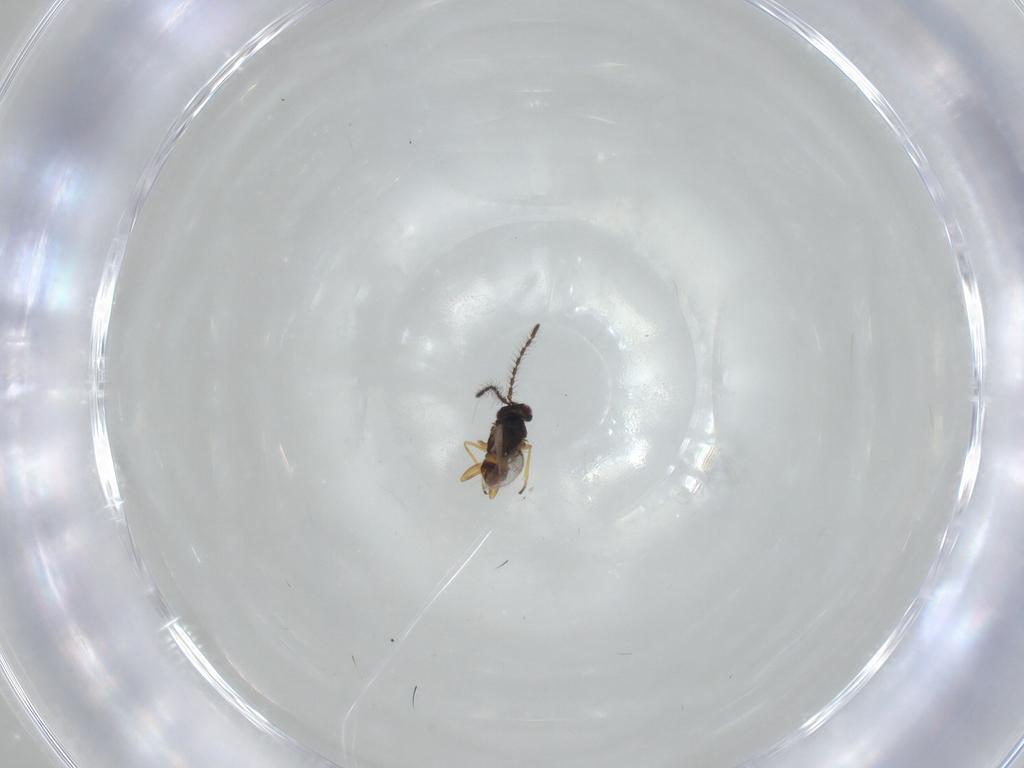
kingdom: Animalia
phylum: Arthropoda
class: Insecta
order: Hymenoptera
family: Encyrtidae
